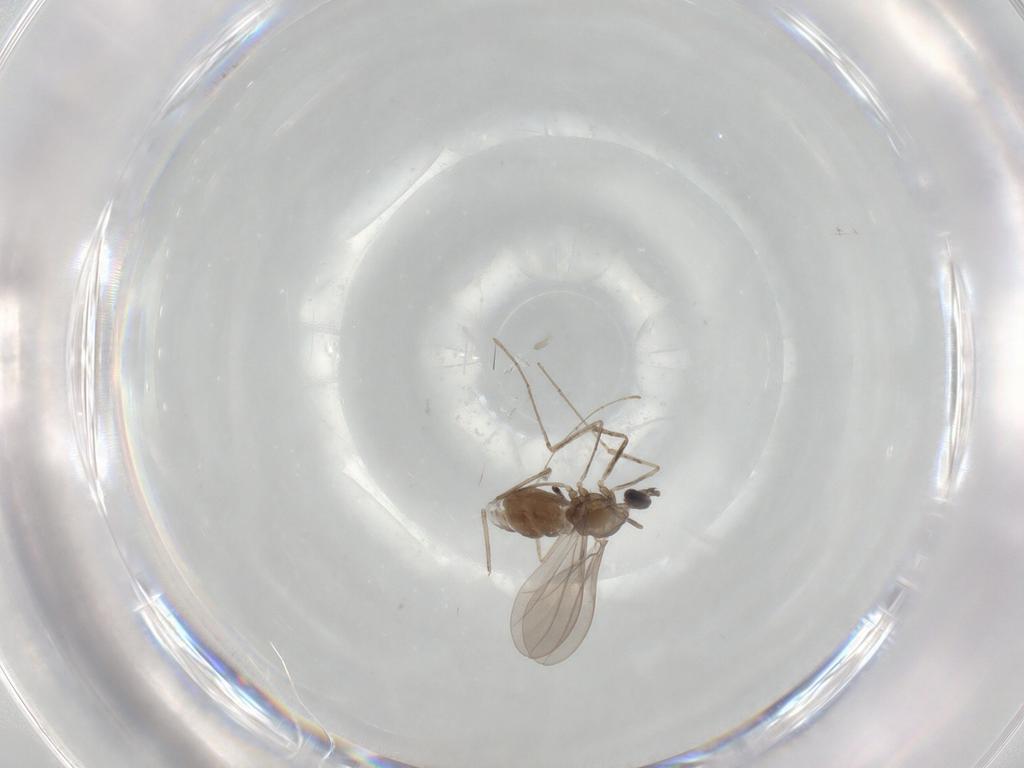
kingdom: Animalia
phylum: Arthropoda
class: Insecta
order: Diptera
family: Cecidomyiidae
